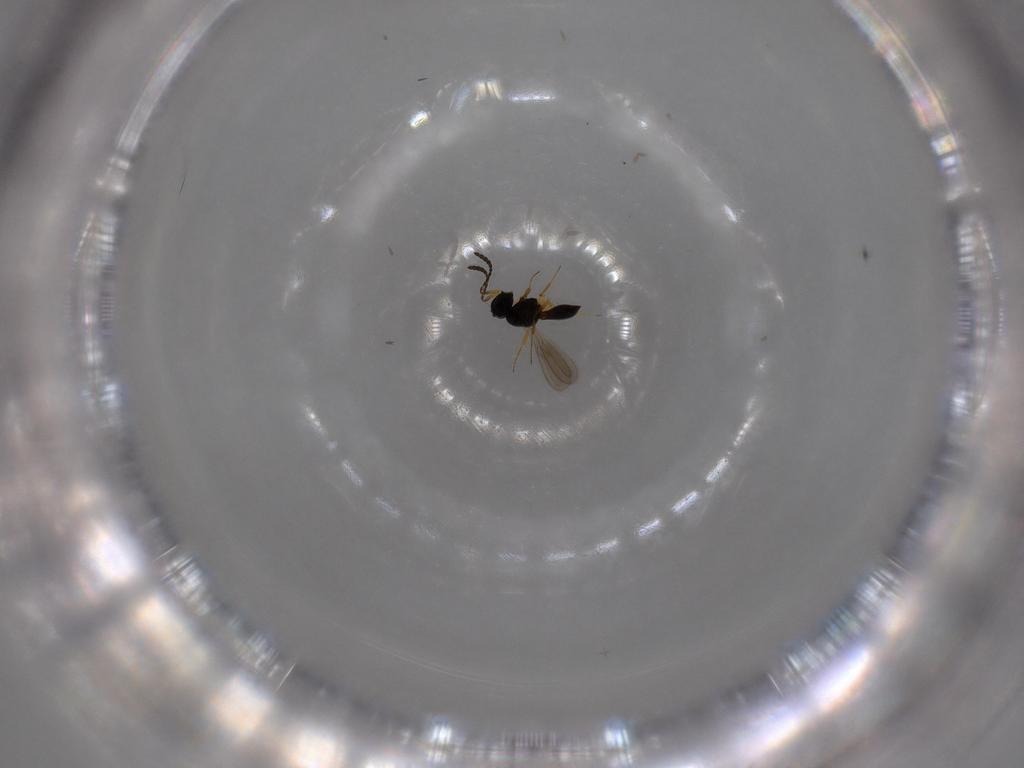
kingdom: Animalia
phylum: Arthropoda
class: Insecta
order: Hymenoptera
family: Scelionidae
